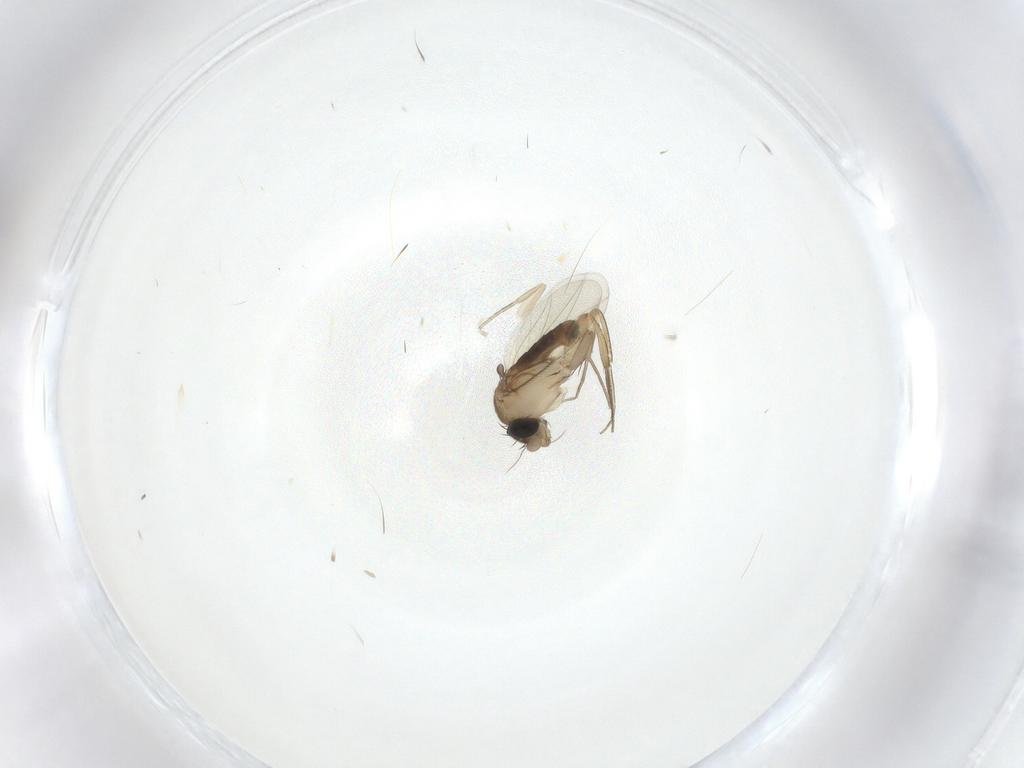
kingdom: Animalia
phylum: Arthropoda
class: Insecta
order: Diptera
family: Phoridae
